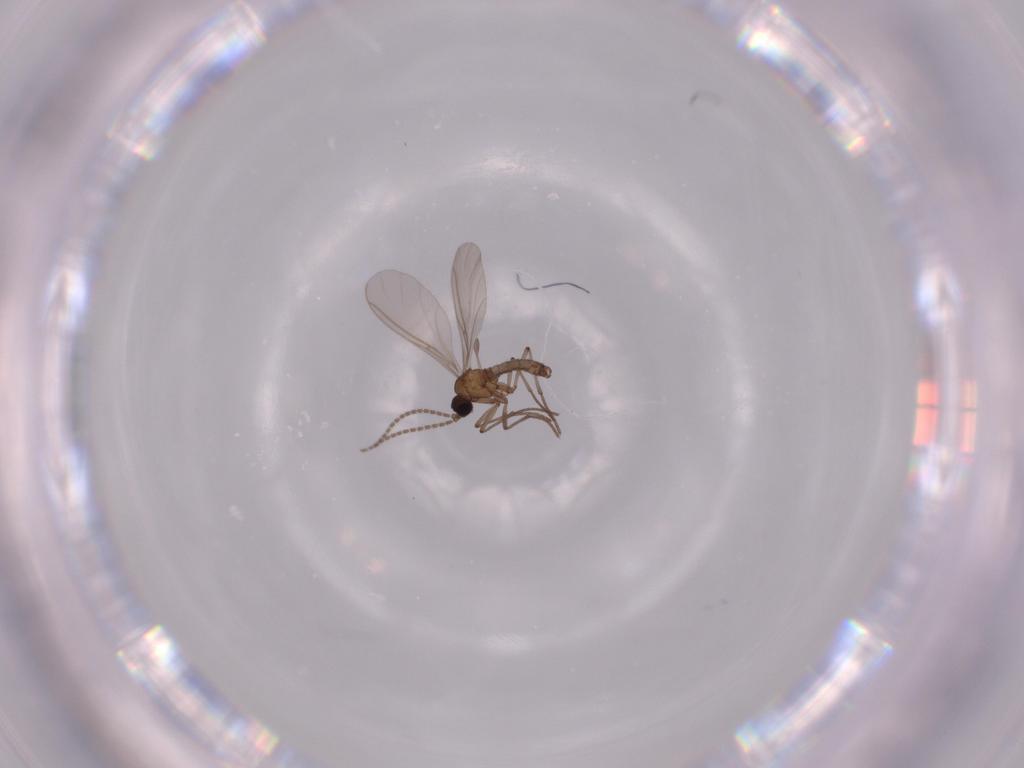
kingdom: Animalia
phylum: Arthropoda
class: Insecta
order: Diptera
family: Sciaridae
